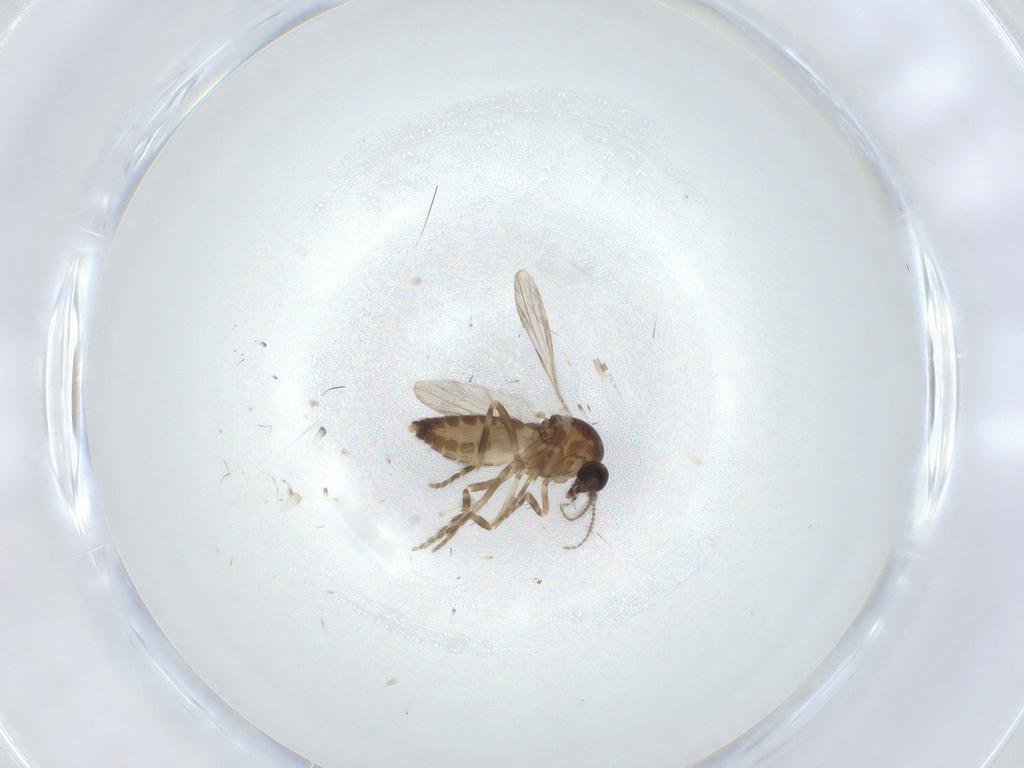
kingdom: Animalia
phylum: Arthropoda
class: Insecta
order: Diptera
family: Ceratopogonidae
